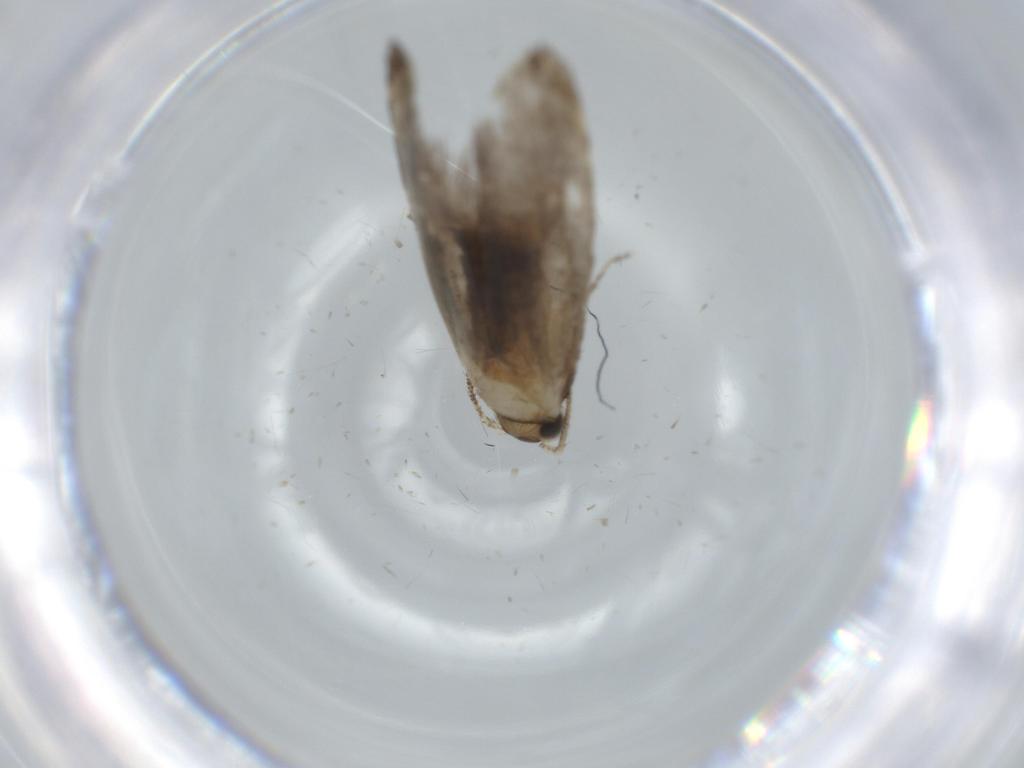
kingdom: Animalia
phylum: Arthropoda
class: Insecta
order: Lepidoptera
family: Tineidae
